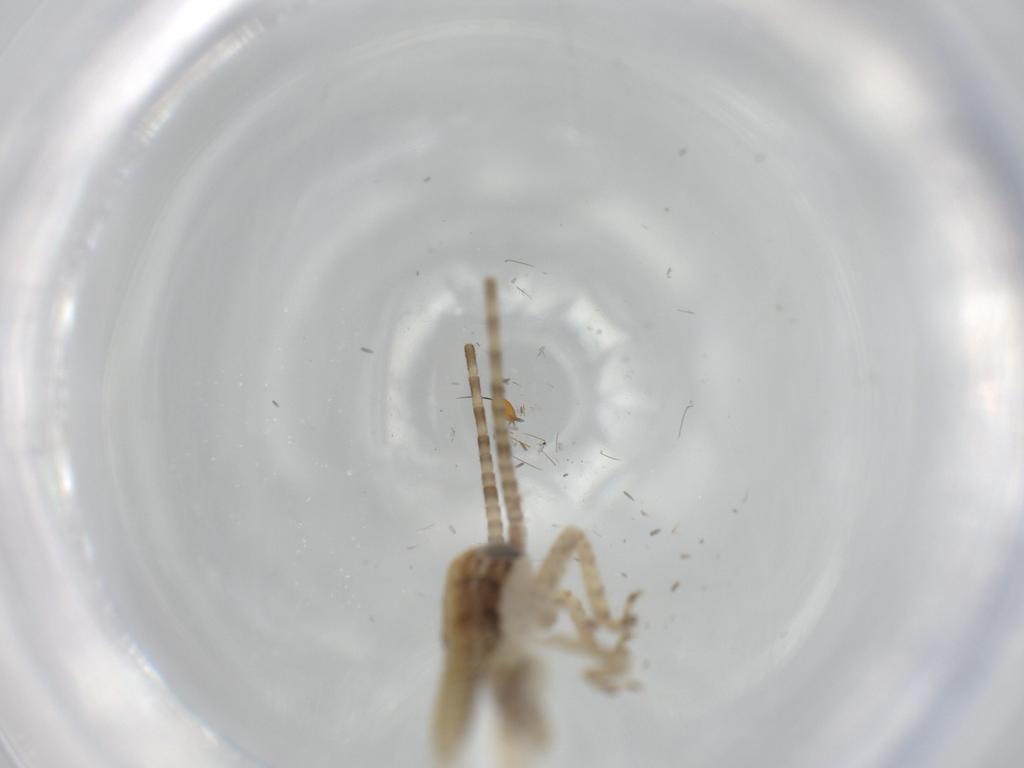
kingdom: Animalia
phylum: Arthropoda
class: Insecta
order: Orthoptera
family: Gryllidae
